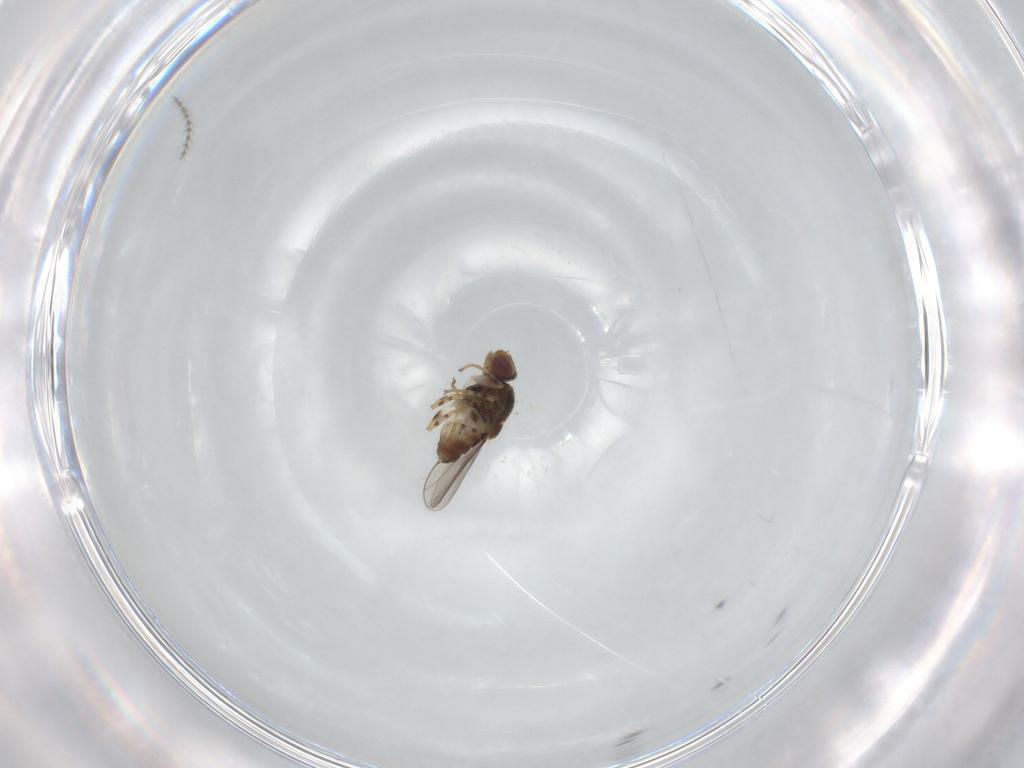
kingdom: Animalia
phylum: Arthropoda
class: Insecta
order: Diptera
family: Chloropidae
